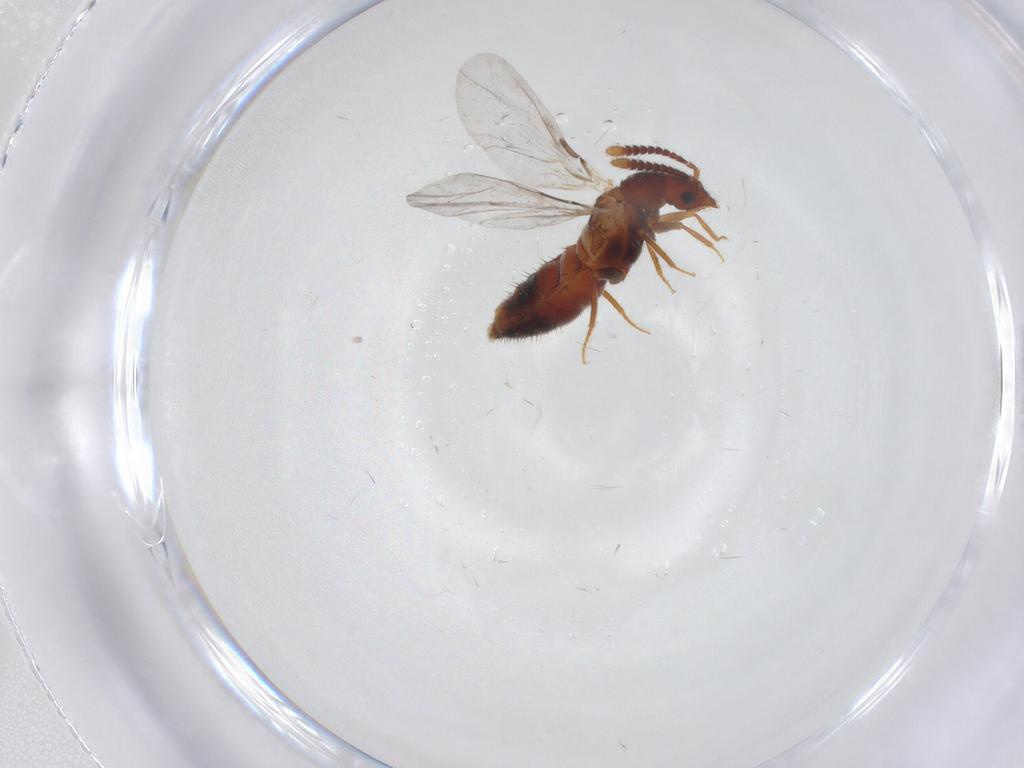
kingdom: Animalia
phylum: Arthropoda
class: Insecta
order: Coleoptera
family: Staphylinidae
